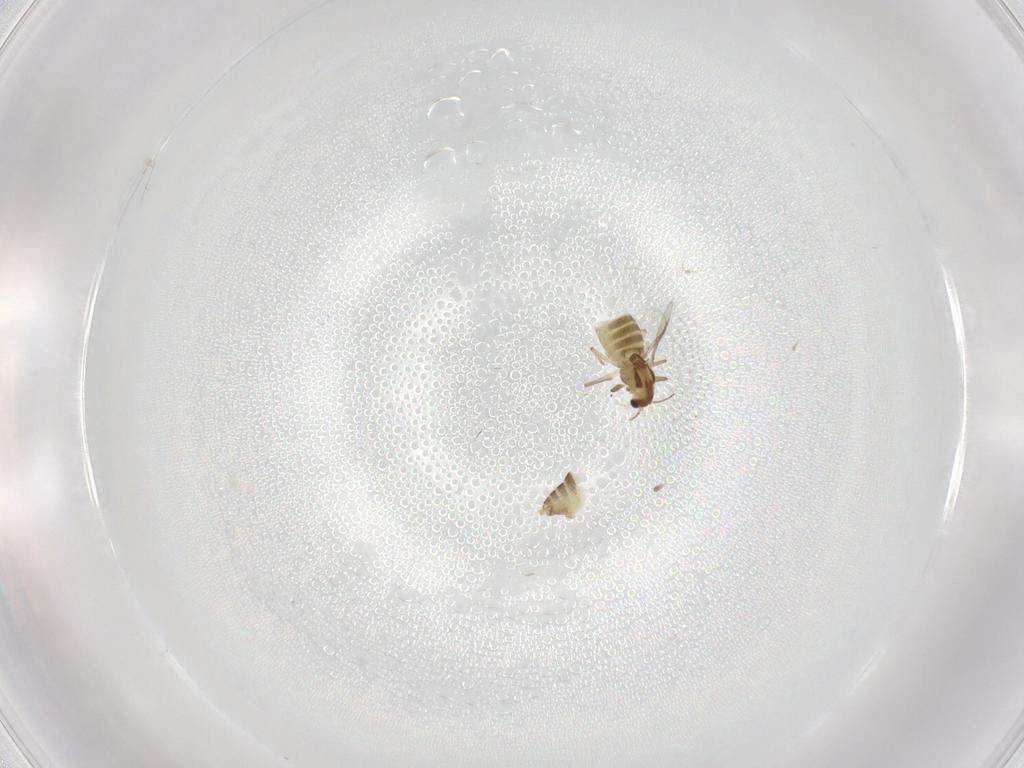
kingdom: Animalia
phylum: Arthropoda
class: Insecta
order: Diptera
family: Chironomidae
